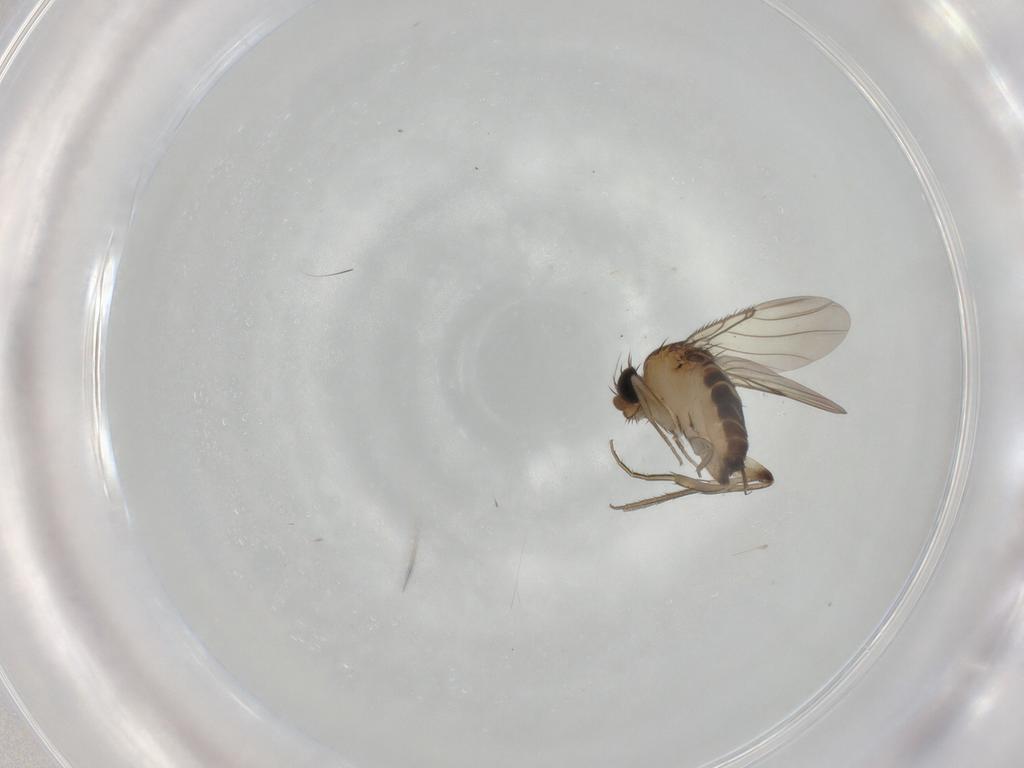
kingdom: Animalia
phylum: Arthropoda
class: Insecta
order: Diptera
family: Phoridae
